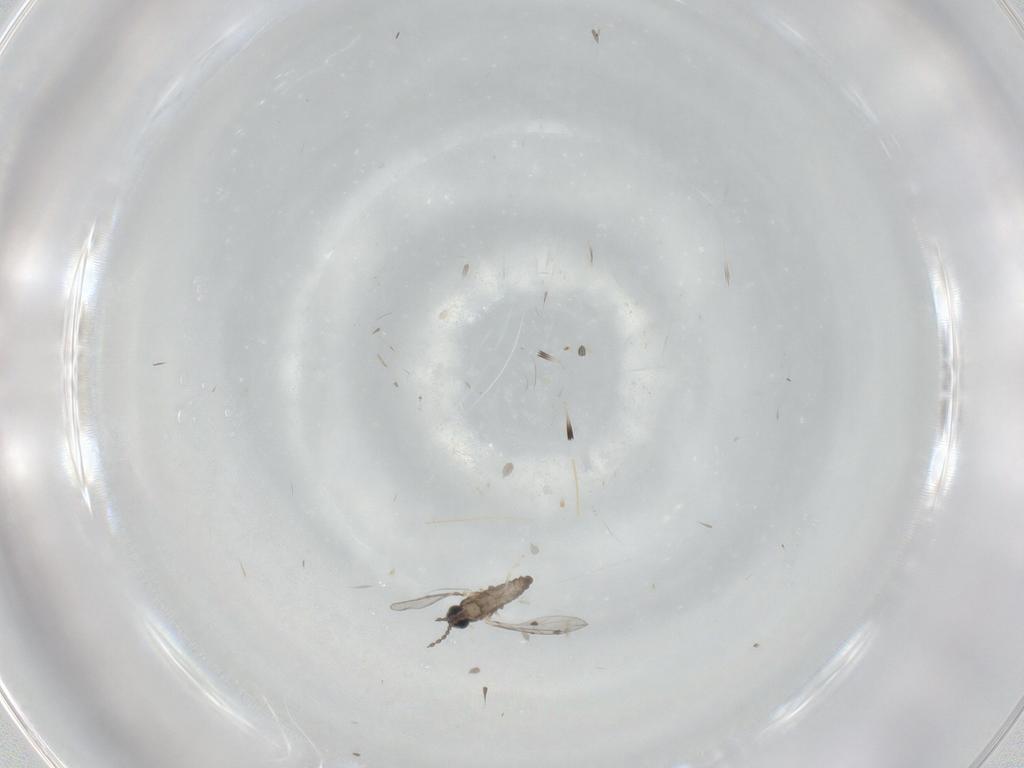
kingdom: Animalia
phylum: Arthropoda
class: Insecta
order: Diptera
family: Cecidomyiidae
